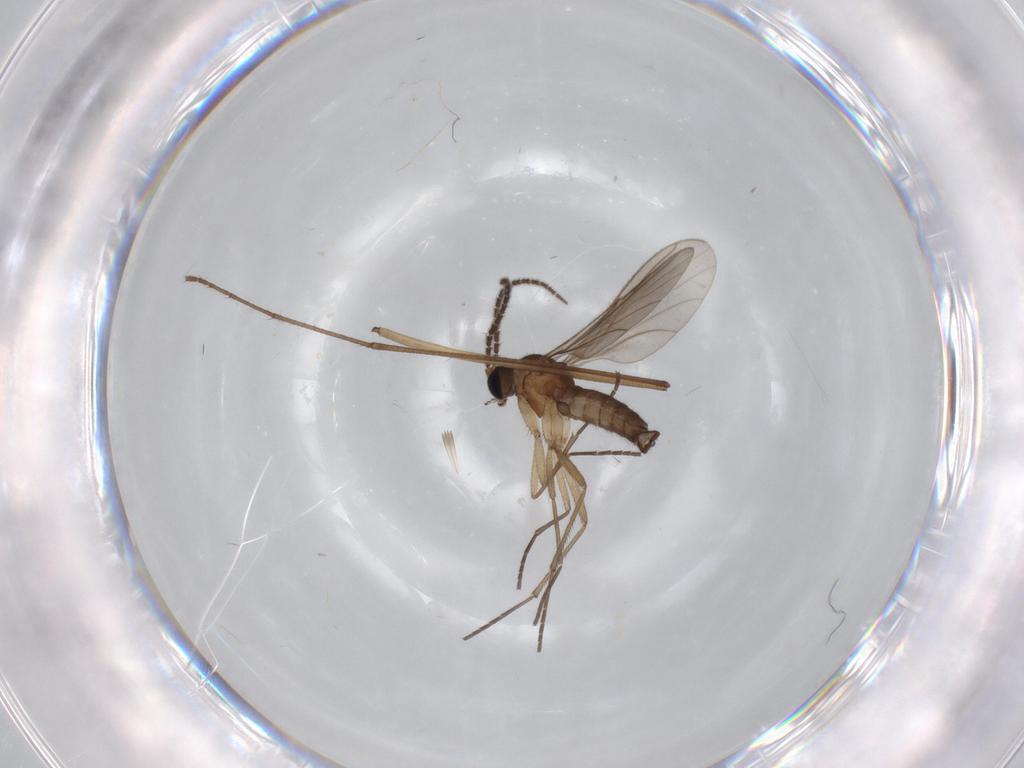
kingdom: Animalia
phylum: Arthropoda
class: Insecta
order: Diptera
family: Sciaridae
